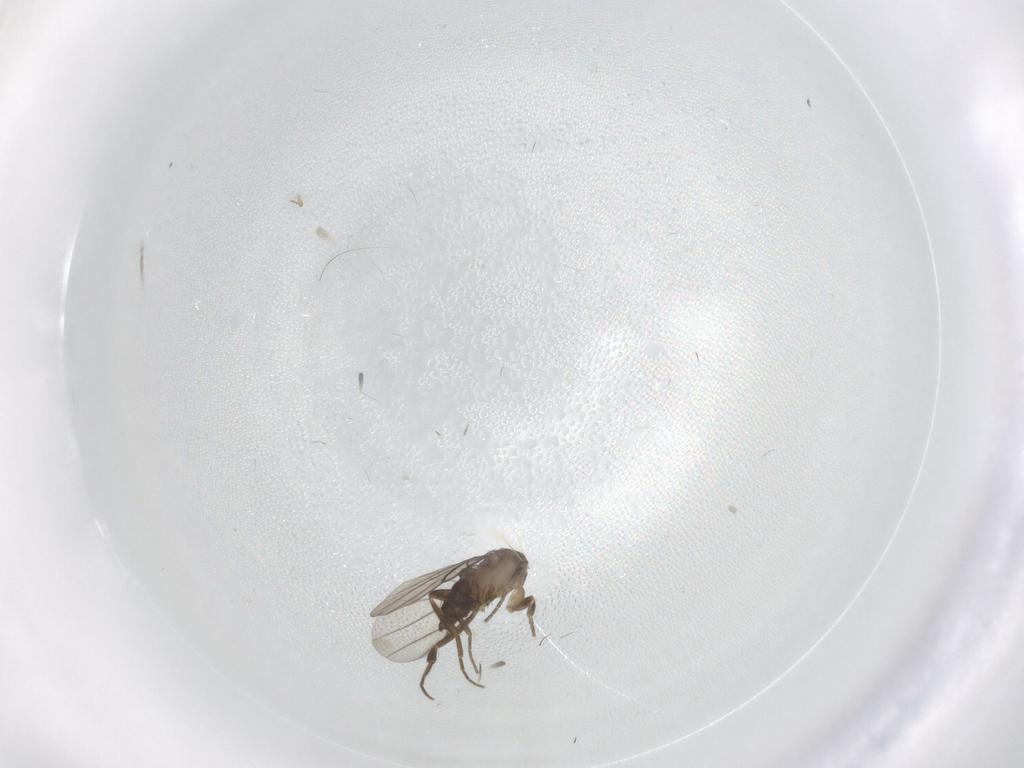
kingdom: Animalia
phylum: Arthropoda
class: Insecta
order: Diptera
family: Phoridae
